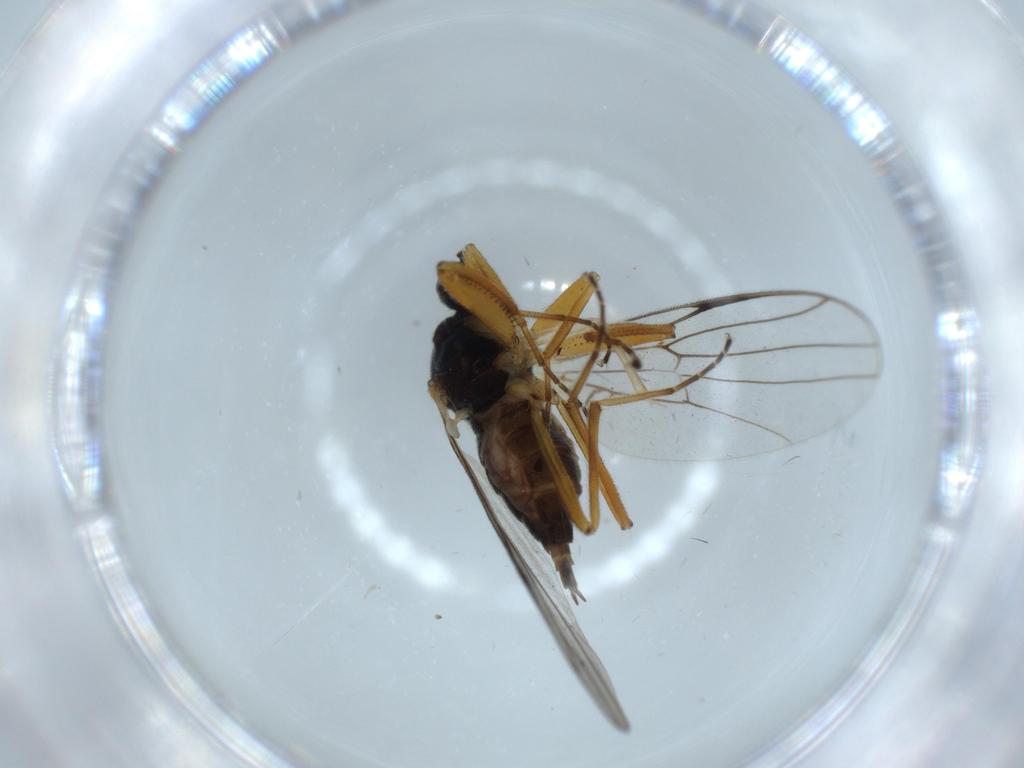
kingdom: Animalia
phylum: Arthropoda
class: Insecta
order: Diptera
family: Hybotidae
